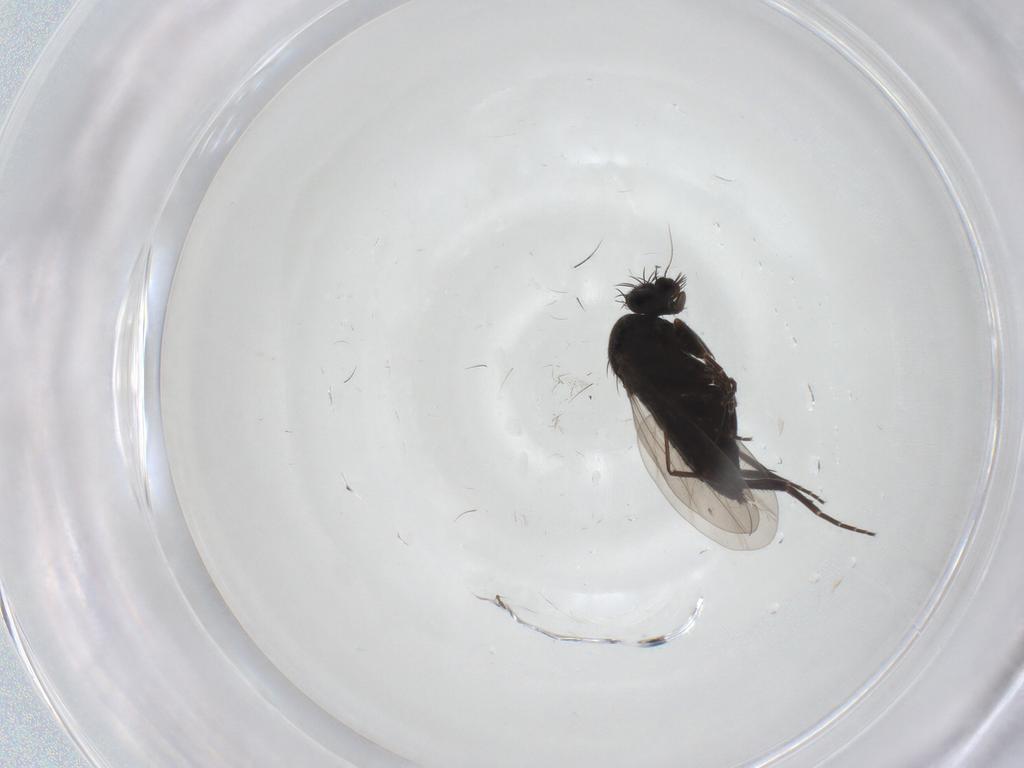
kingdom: Animalia
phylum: Arthropoda
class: Insecta
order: Diptera
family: Phoridae
